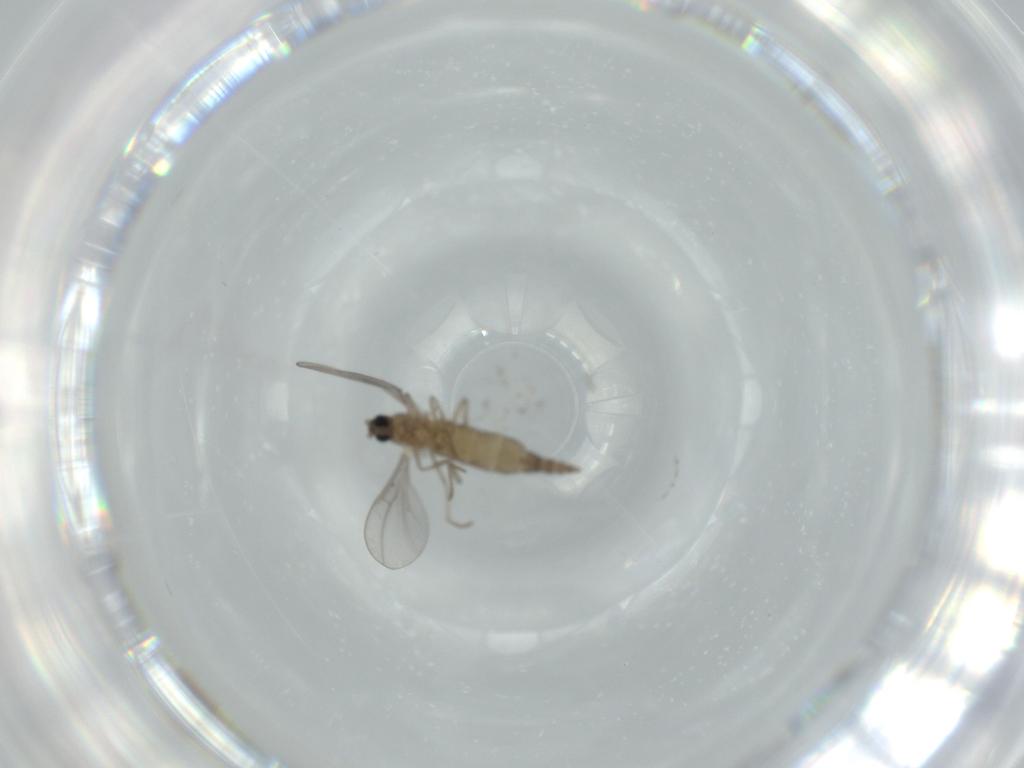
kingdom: Animalia
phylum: Arthropoda
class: Insecta
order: Diptera
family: Cecidomyiidae
